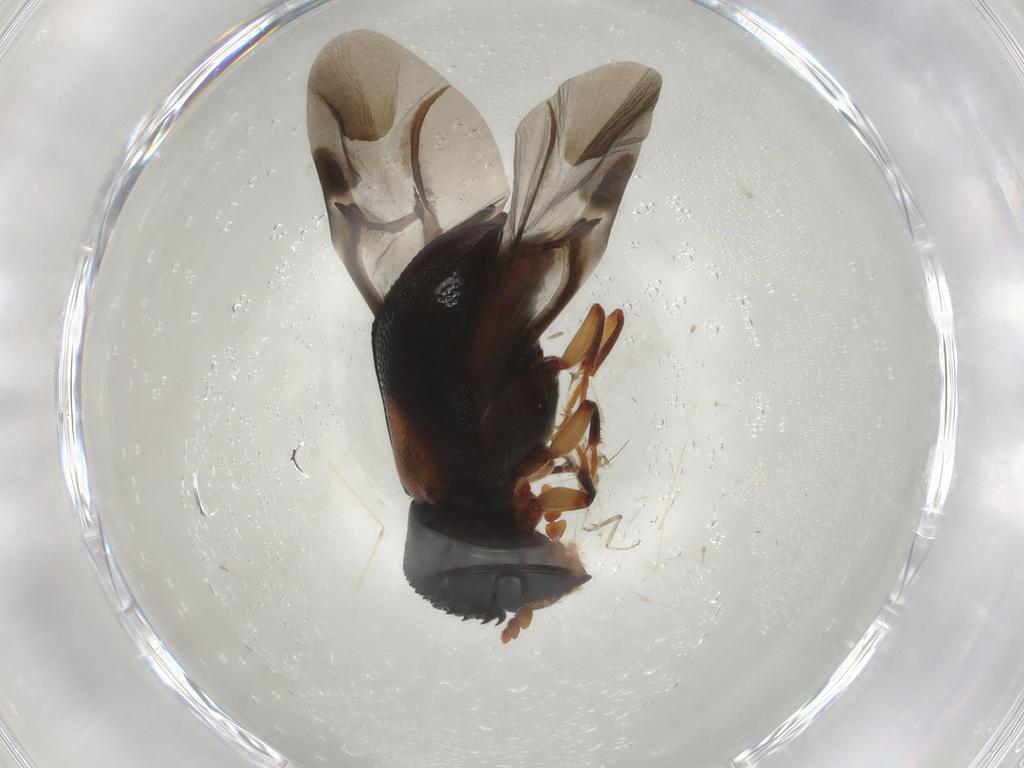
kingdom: Animalia
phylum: Arthropoda
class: Insecta
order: Coleoptera
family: Bostrichidae
